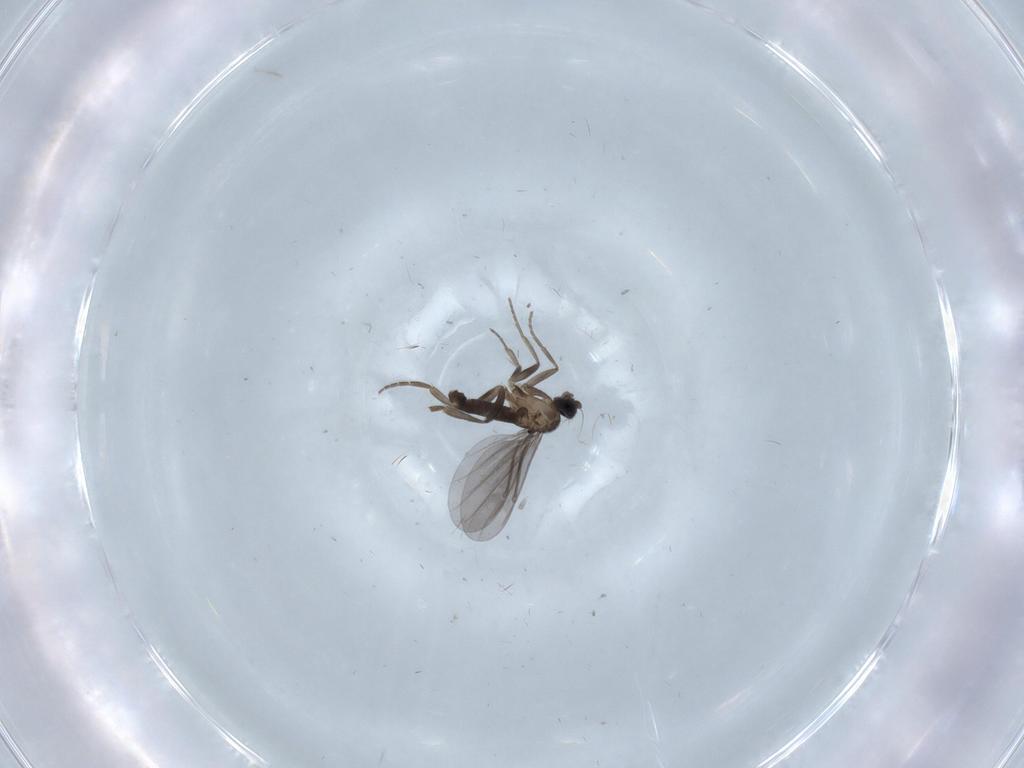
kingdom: Animalia
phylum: Arthropoda
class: Insecta
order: Diptera
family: Chironomidae
